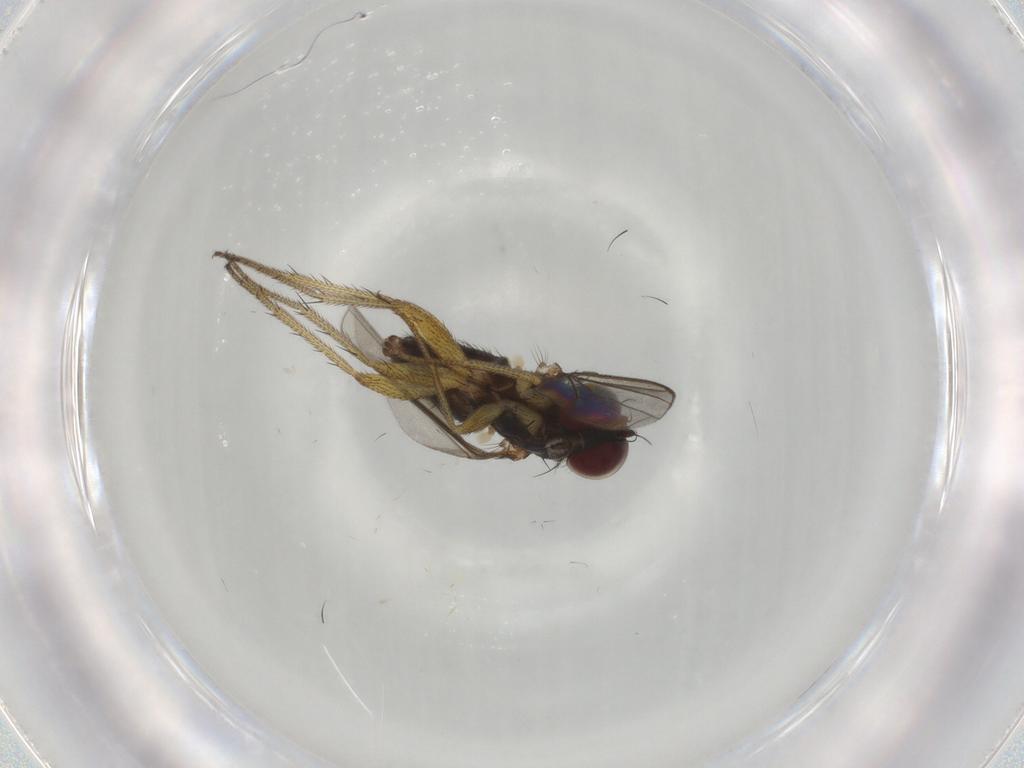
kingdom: Animalia
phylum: Arthropoda
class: Insecta
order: Diptera
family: Dolichopodidae
